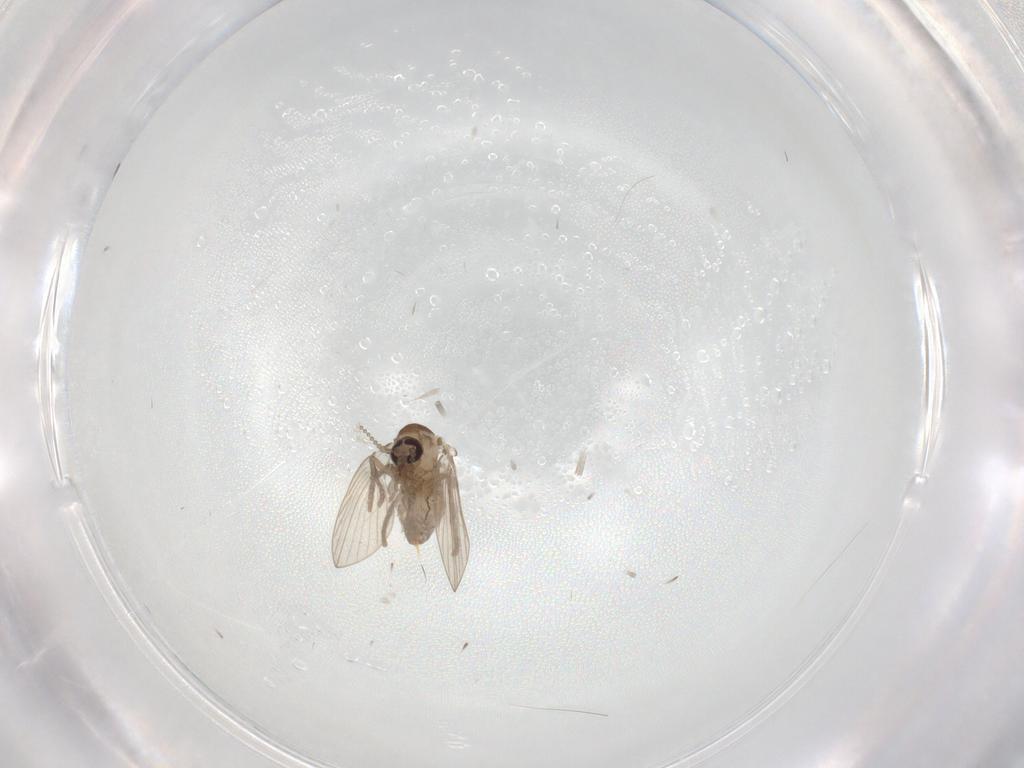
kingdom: Animalia
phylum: Arthropoda
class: Insecta
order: Diptera
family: Psychodidae
